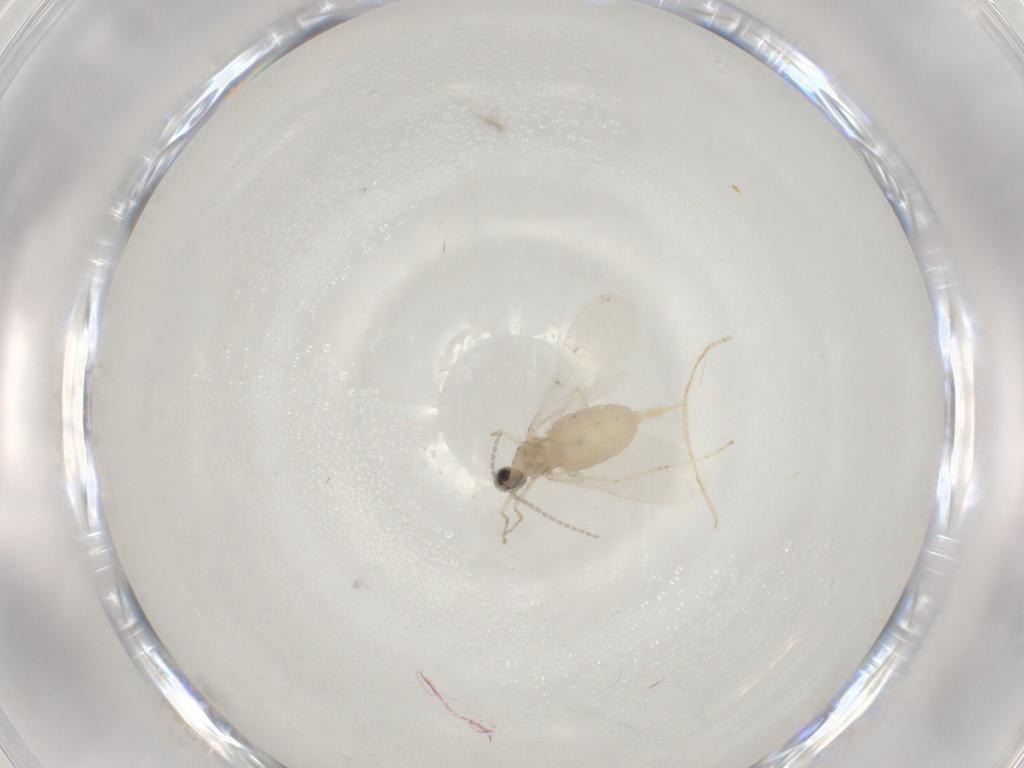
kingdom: Animalia
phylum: Arthropoda
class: Insecta
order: Diptera
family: Cecidomyiidae
